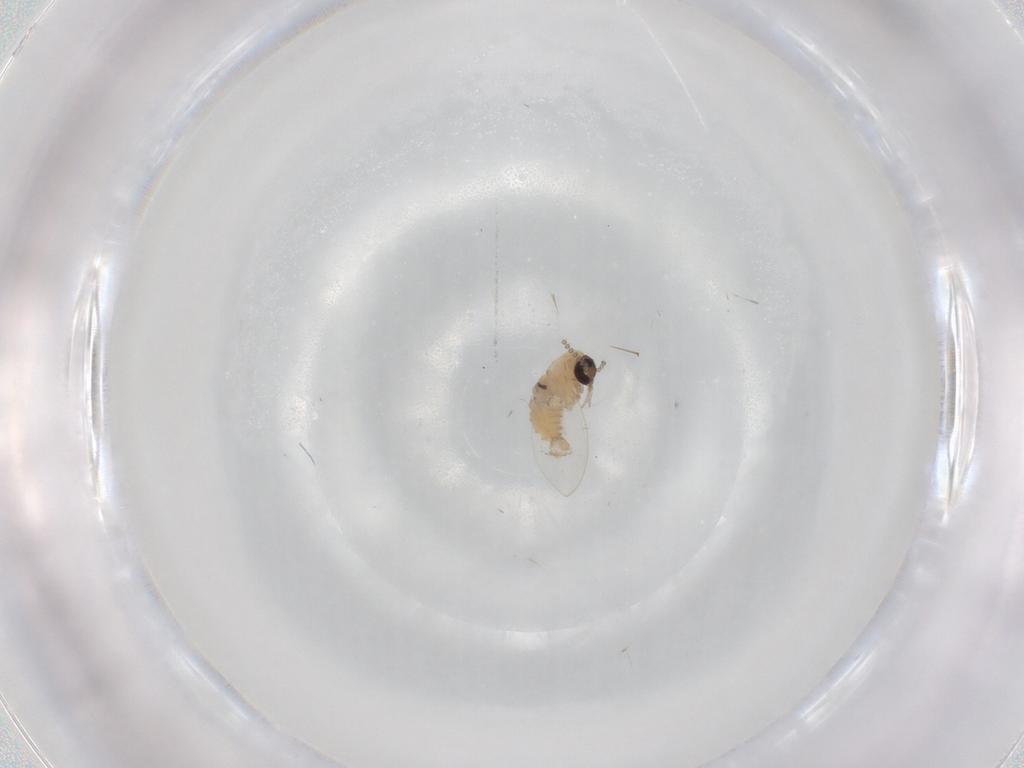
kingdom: Animalia
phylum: Arthropoda
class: Insecta
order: Diptera
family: Psychodidae
